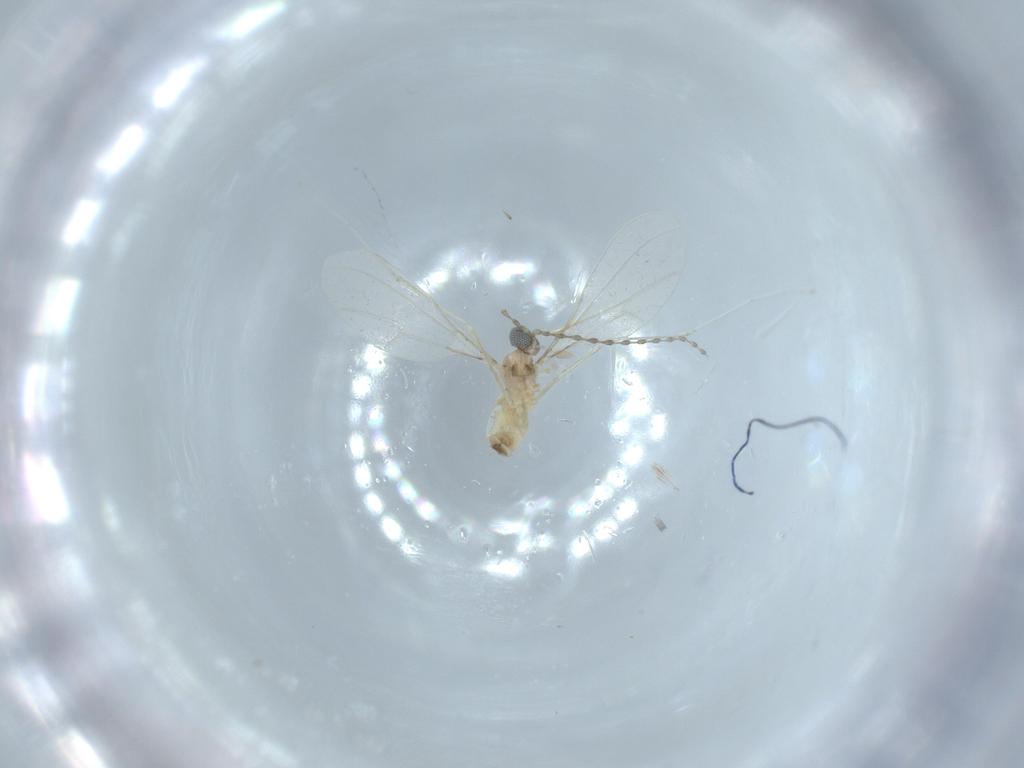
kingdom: Animalia
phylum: Arthropoda
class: Insecta
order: Diptera
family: Cecidomyiidae
